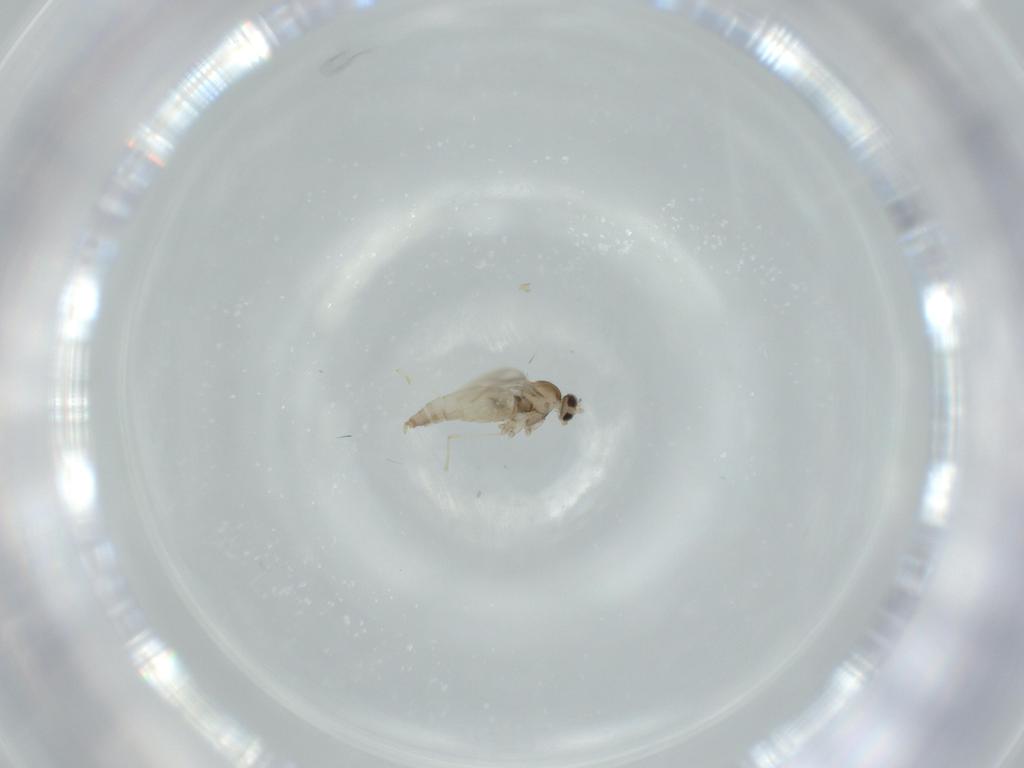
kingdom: Animalia
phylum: Arthropoda
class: Insecta
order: Diptera
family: Cecidomyiidae
